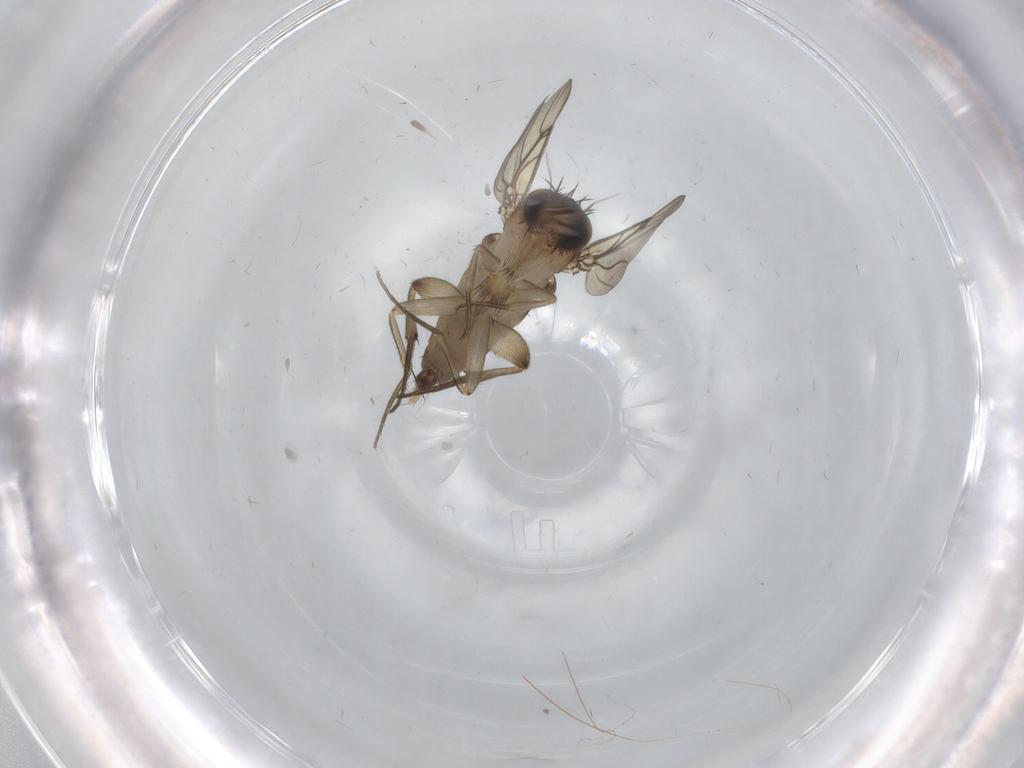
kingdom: Animalia
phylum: Arthropoda
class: Insecta
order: Diptera
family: Phoridae
